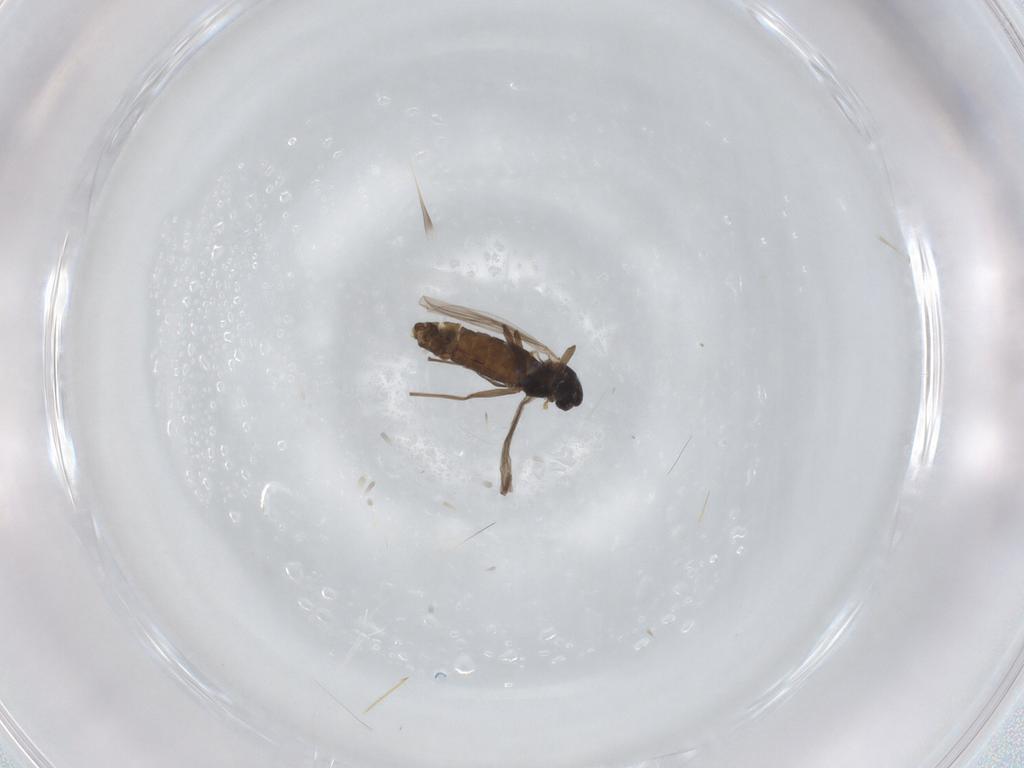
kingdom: Animalia
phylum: Arthropoda
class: Insecta
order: Diptera
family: Chironomidae
